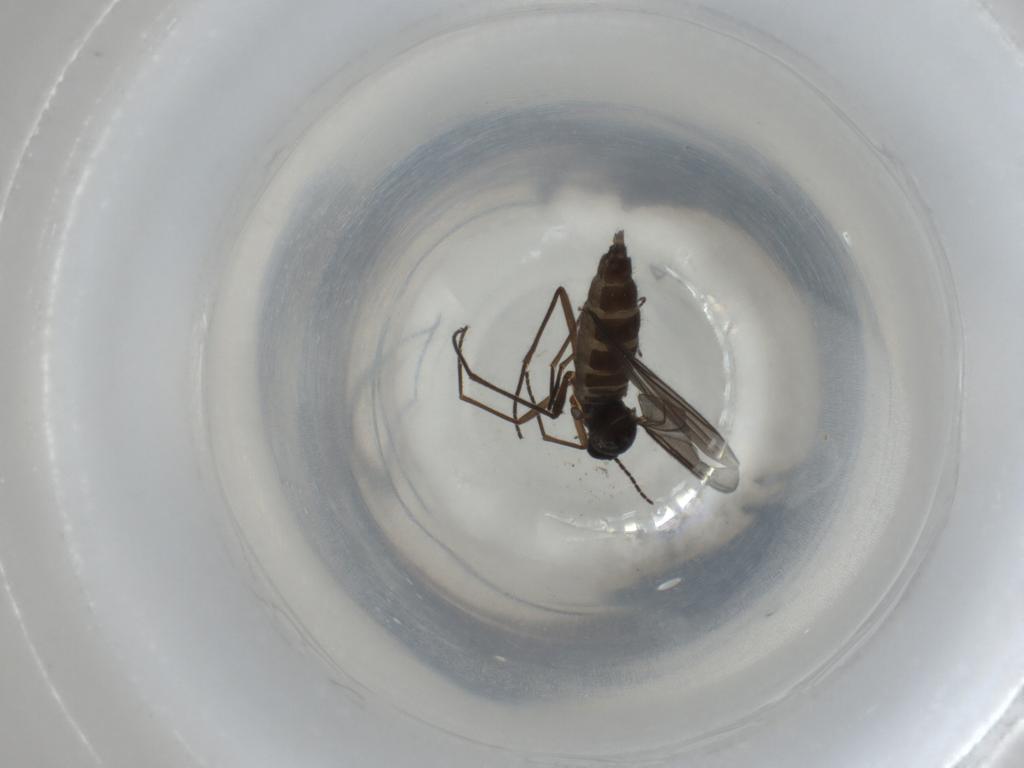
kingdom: Animalia
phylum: Arthropoda
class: Insecta
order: Diptera
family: Sciaridae
